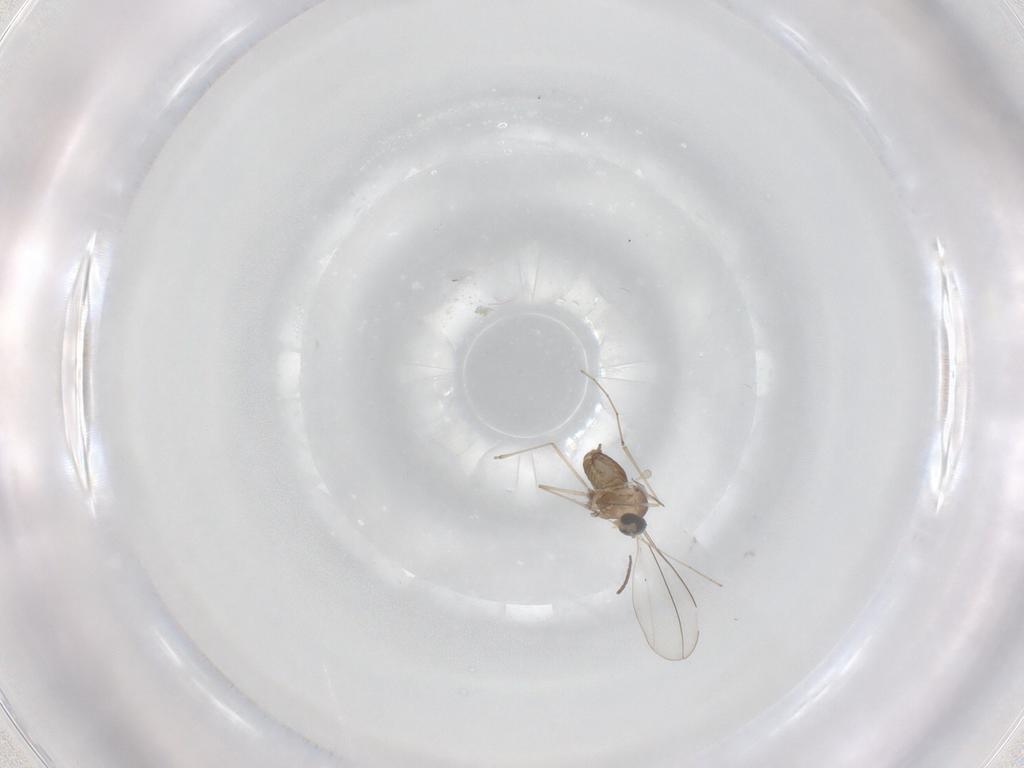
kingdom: Animalia
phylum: Arthropoda
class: Insecta
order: Diptera
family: Cecidomyiidae
